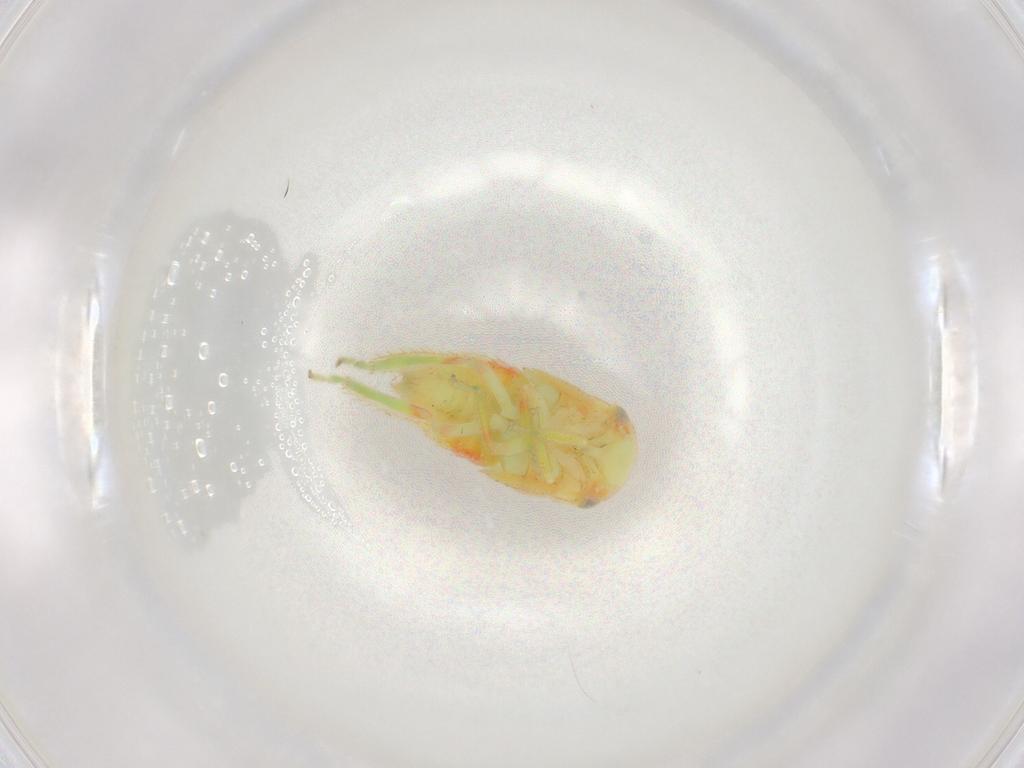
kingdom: Animalia
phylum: Arthropoda
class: Insecta
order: Hemiptera
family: Cicadellidae
